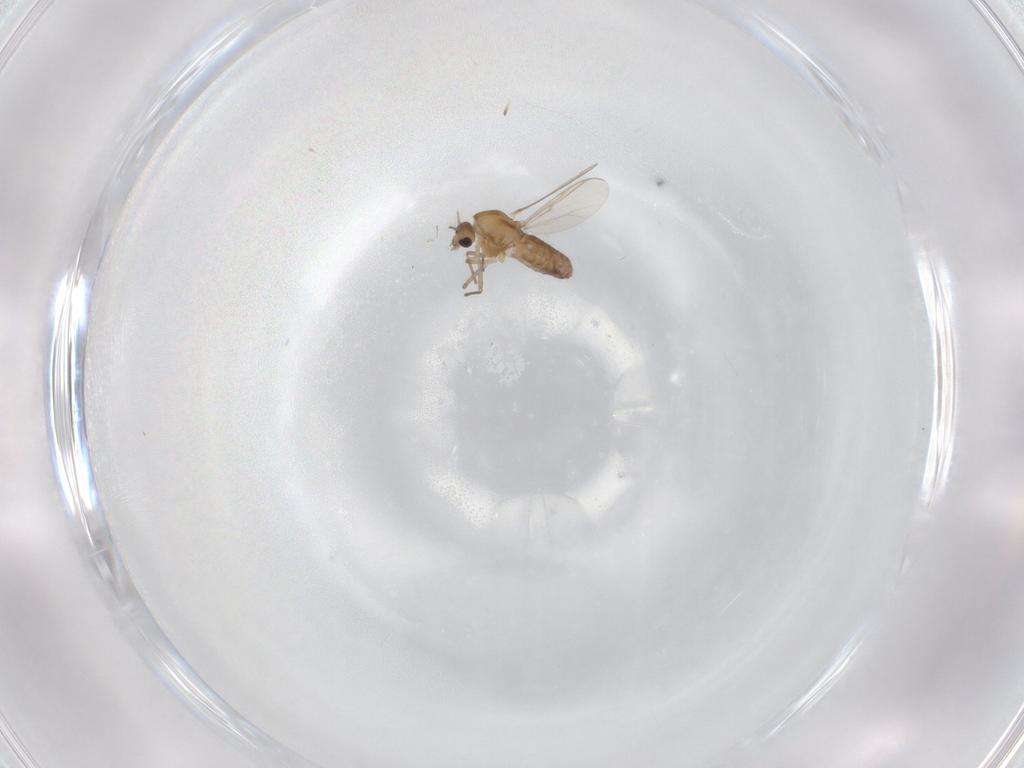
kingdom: Animalia
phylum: Arthropoda
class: Insecta
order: Diptera
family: Chironomidae
